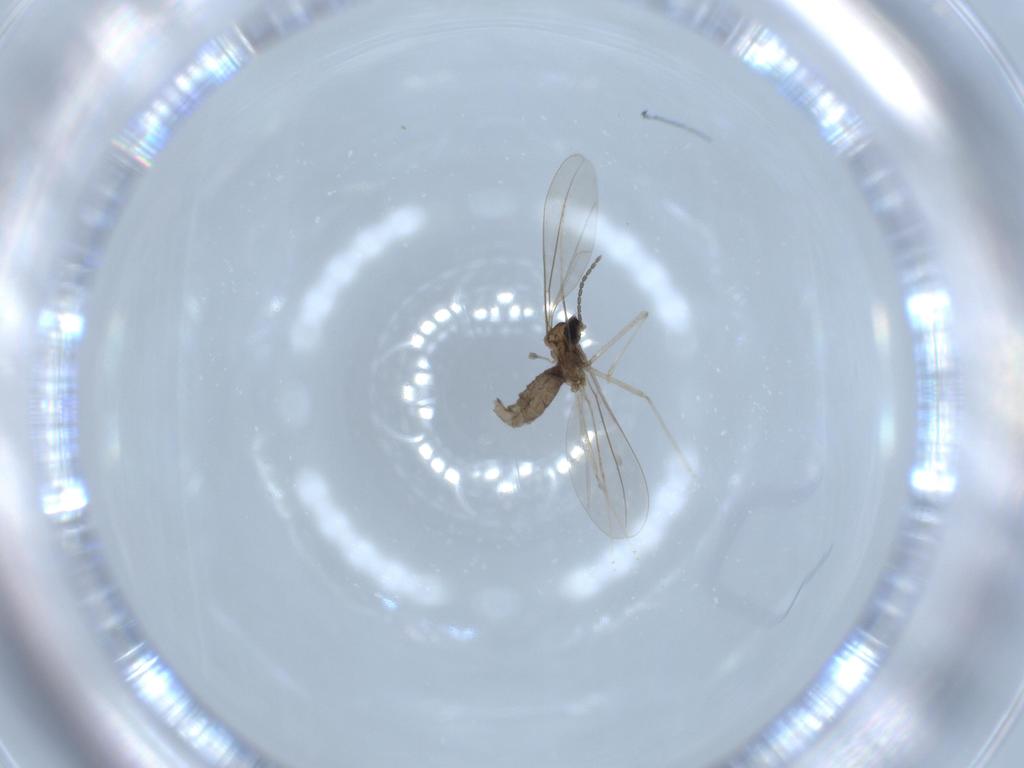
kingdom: Animalia
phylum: Arthropoda
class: Insecta
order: Diptera
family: Cecidomyiidae
